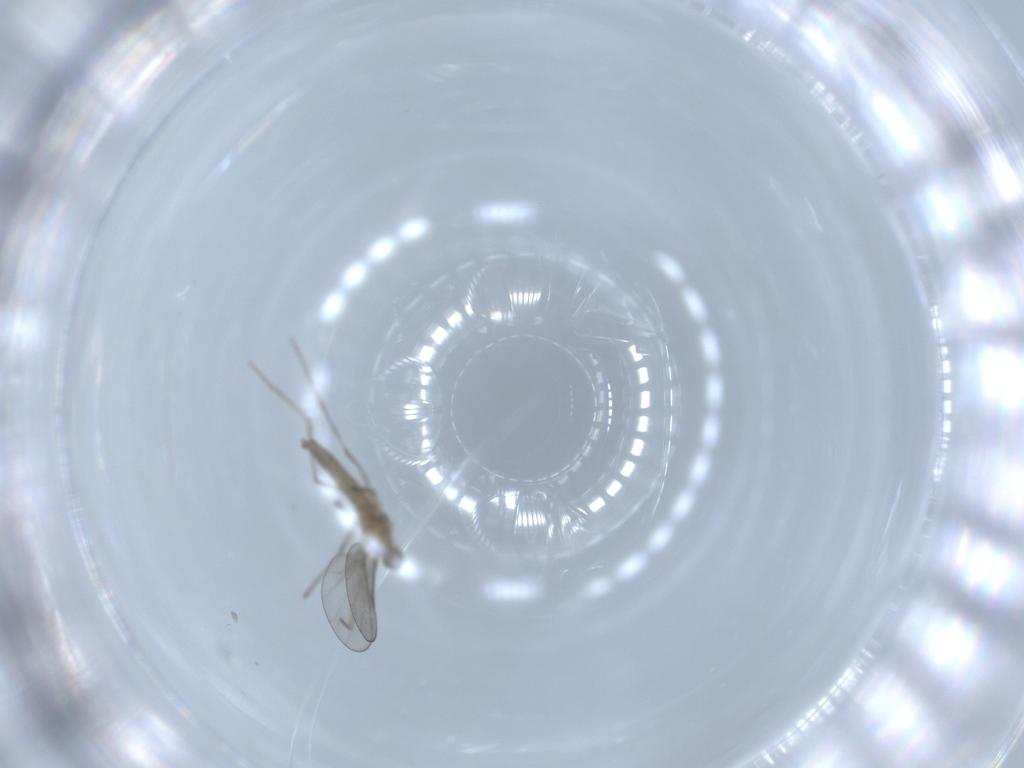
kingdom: Animalia
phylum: Arthropoda
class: Insecta
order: Diptera
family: Cecidomyiidae
